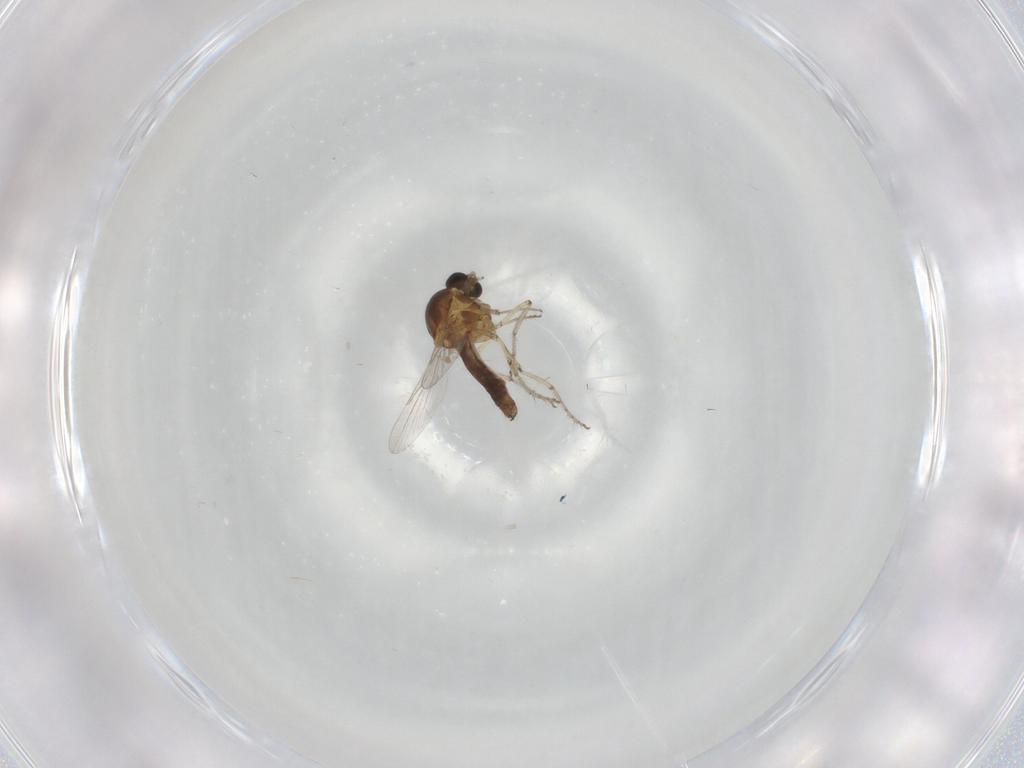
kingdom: Animalia
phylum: Arthropoda
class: Insecta
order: Diptera
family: Ceratopogonidae
